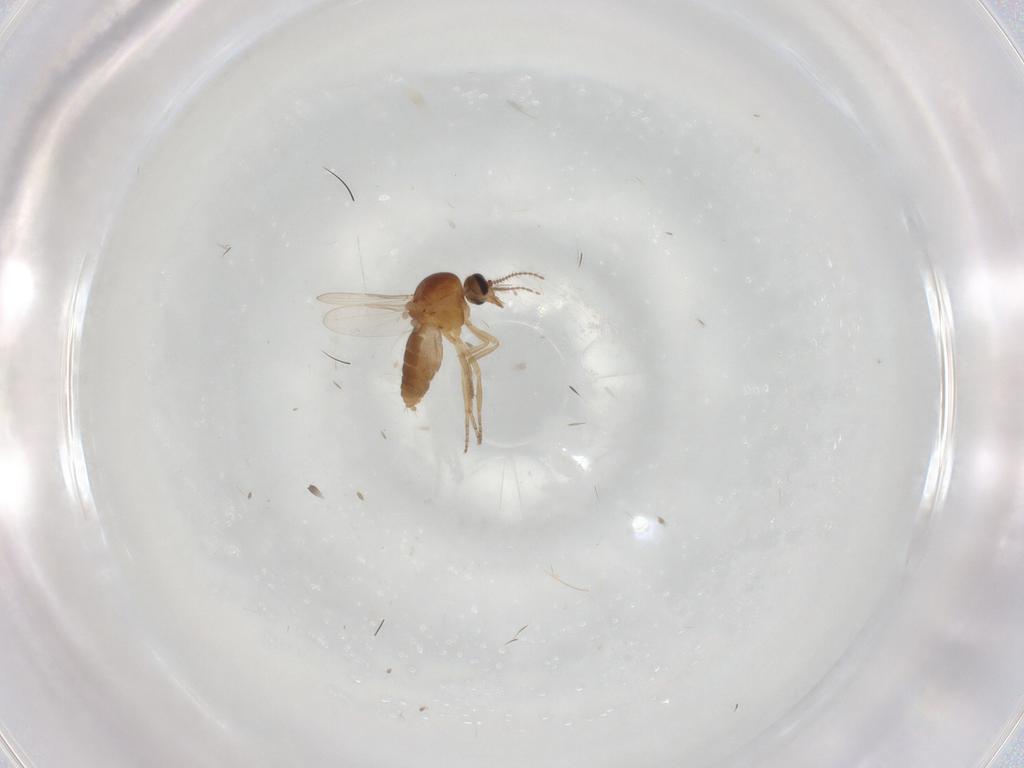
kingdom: Animalia
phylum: Arthropoda
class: Insecta
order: Diptera
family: Ceratopogonidae
